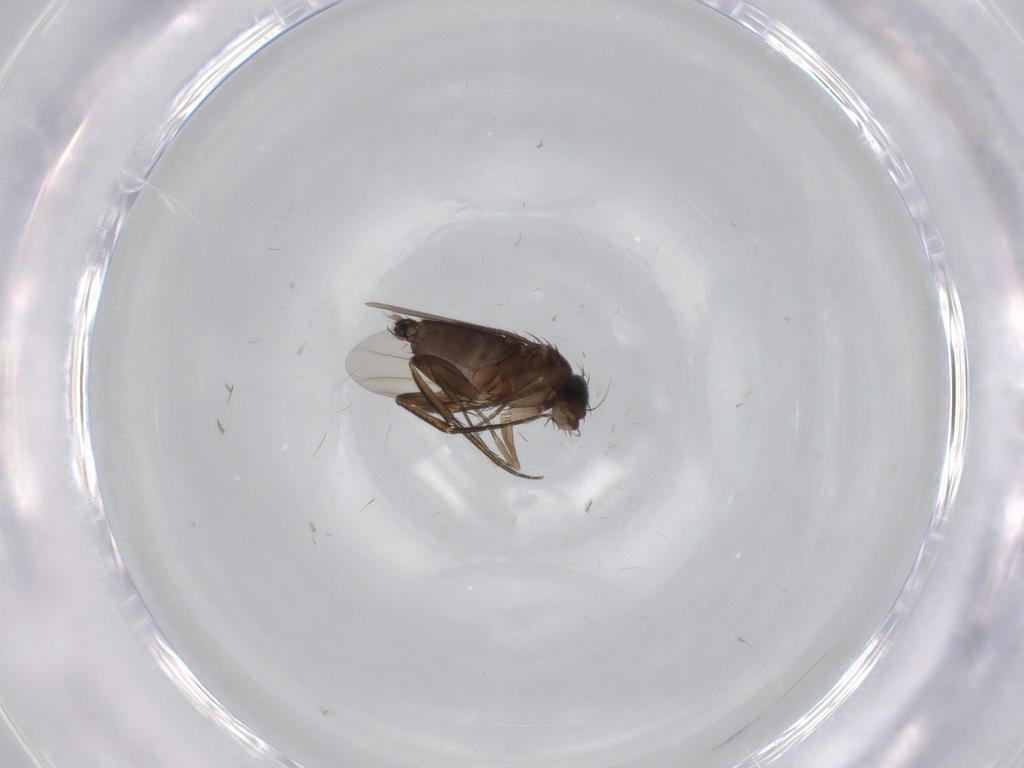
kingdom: Animalia
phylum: Arthropoda
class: Insecta
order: Diptera
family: Phoridae
